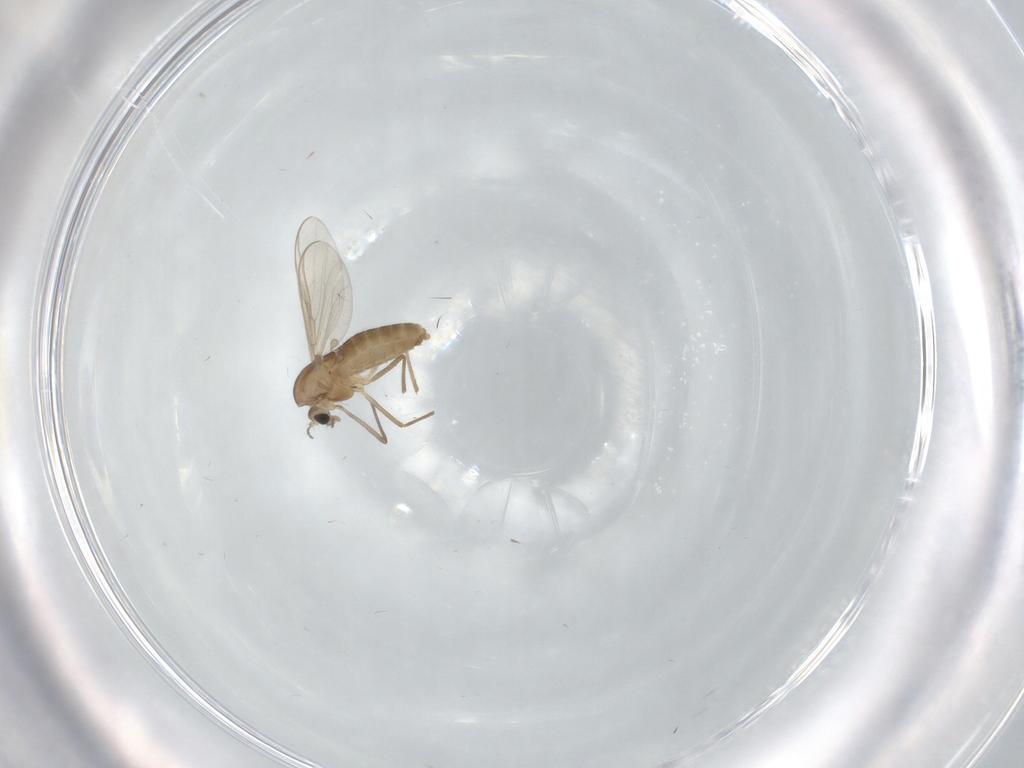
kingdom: Animalia
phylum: Arthropoda
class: Insecta
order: Diptera
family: Chironomidae
